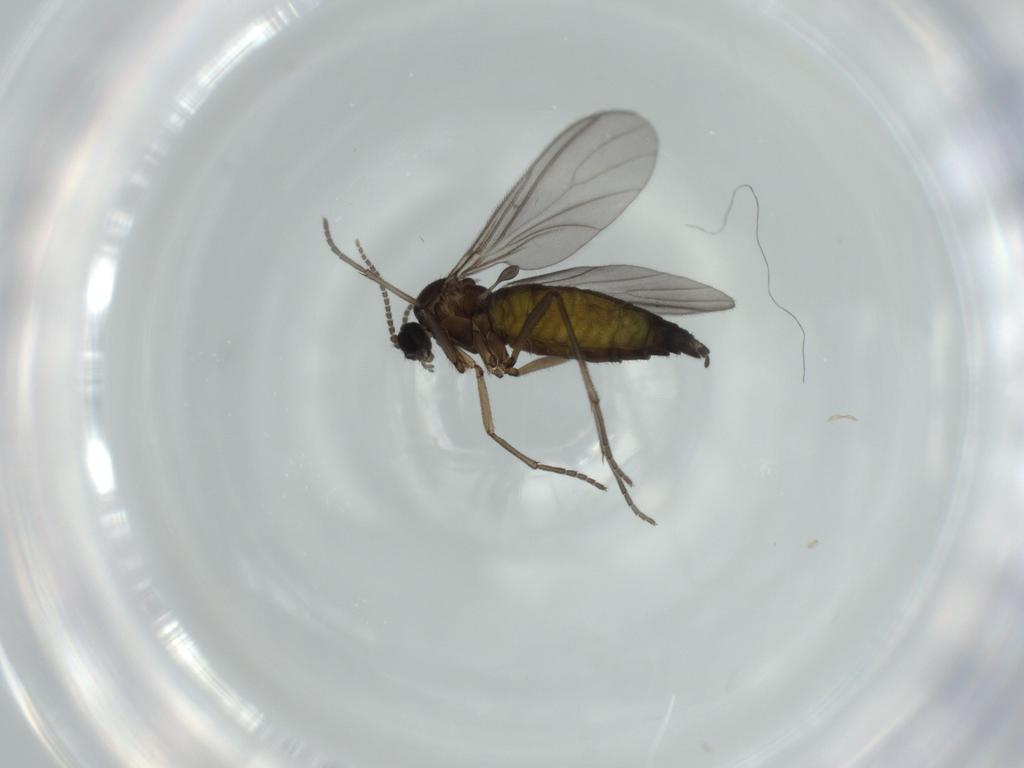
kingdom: Animalia
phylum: Arthropoda
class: Insecta
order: Diptera
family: Sciaridae
